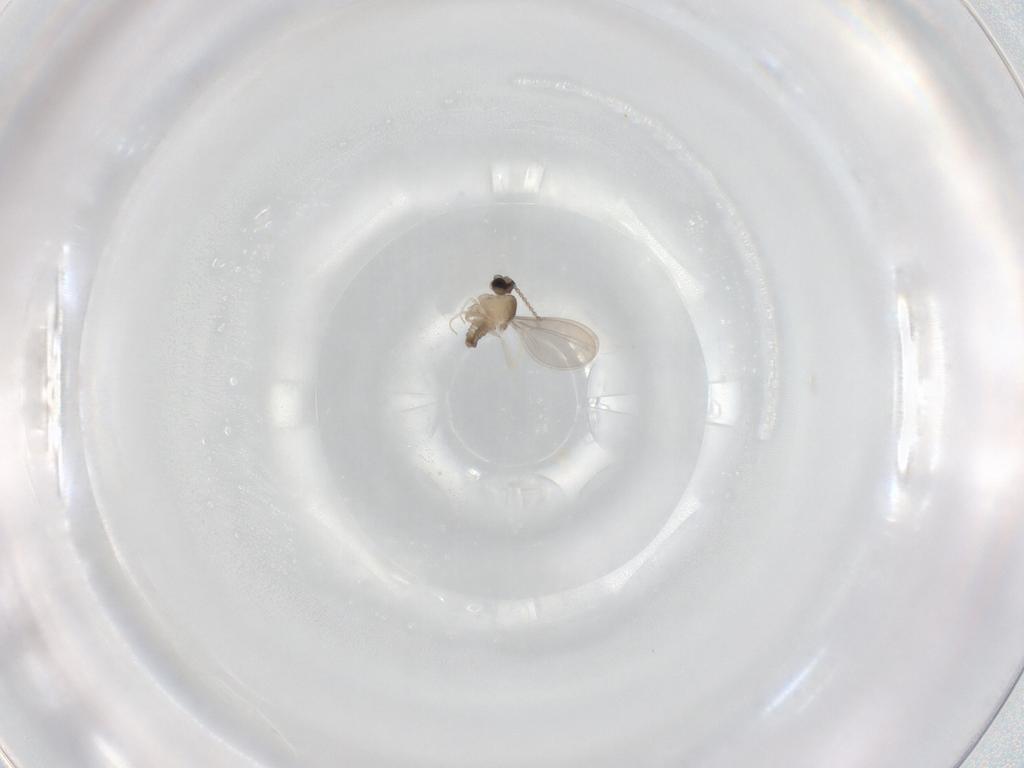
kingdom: Animalia
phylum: Arthropoda
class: Insecta
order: Diptera
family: Cecidomyiidae
